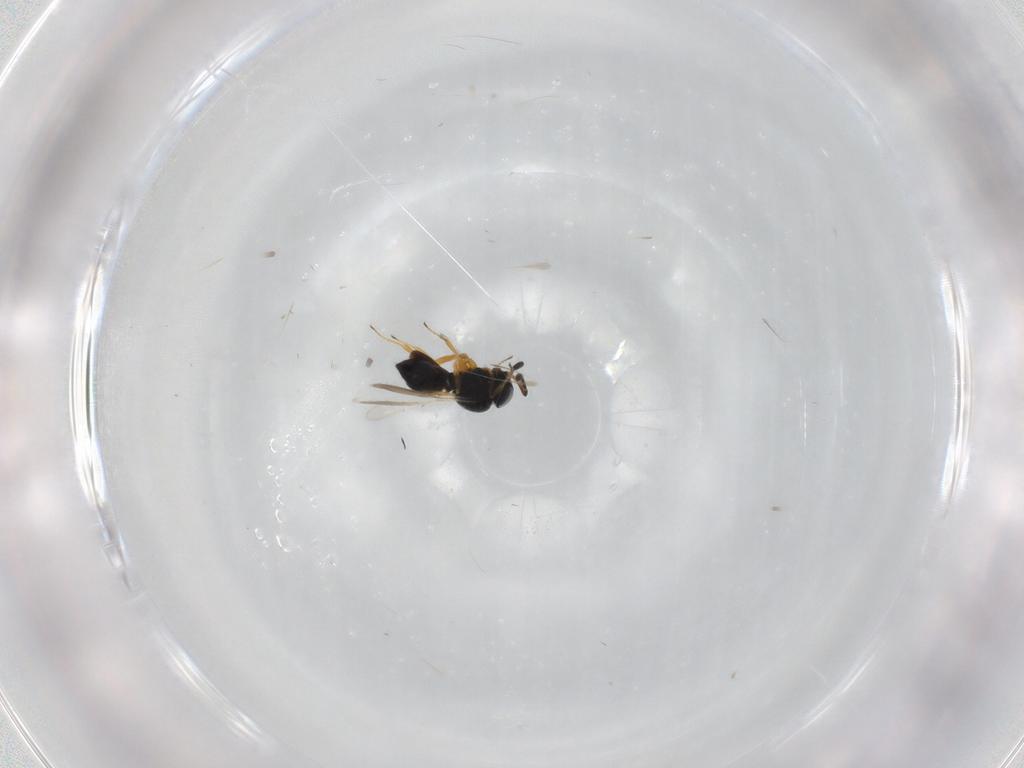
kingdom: Animalia
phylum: Arthropoda
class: Insecta
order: Hymenoptera
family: Scelionidae
